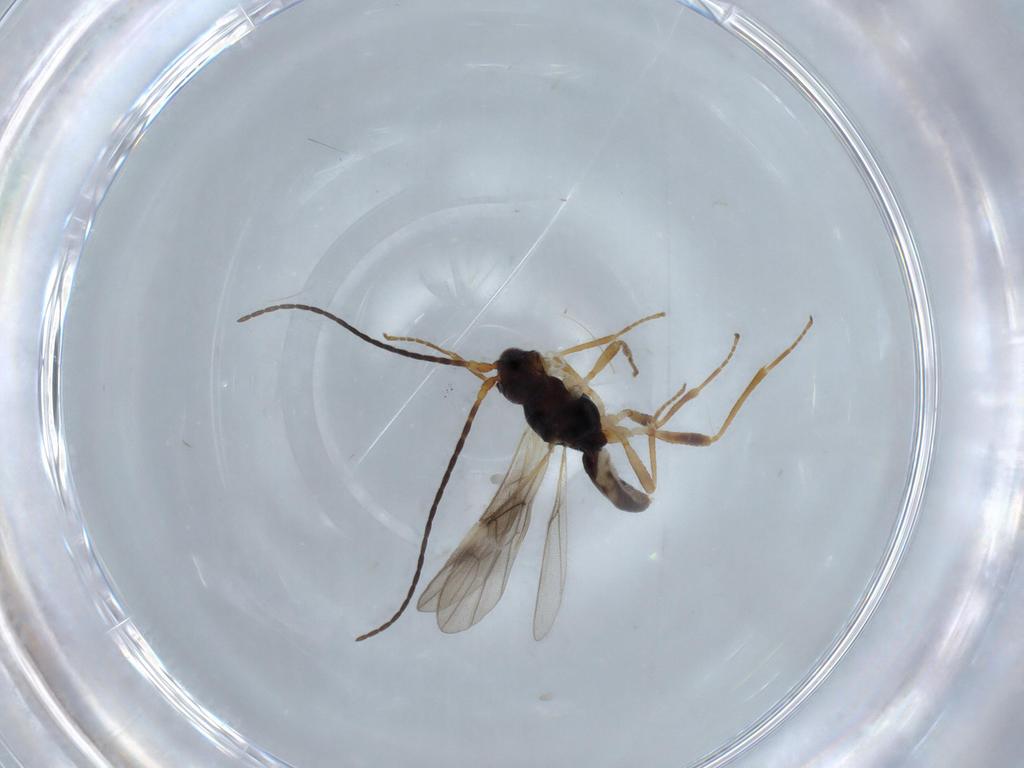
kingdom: Animalia
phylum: Arthropoda
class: Insecta
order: Hymenoptera
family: Braconidae
